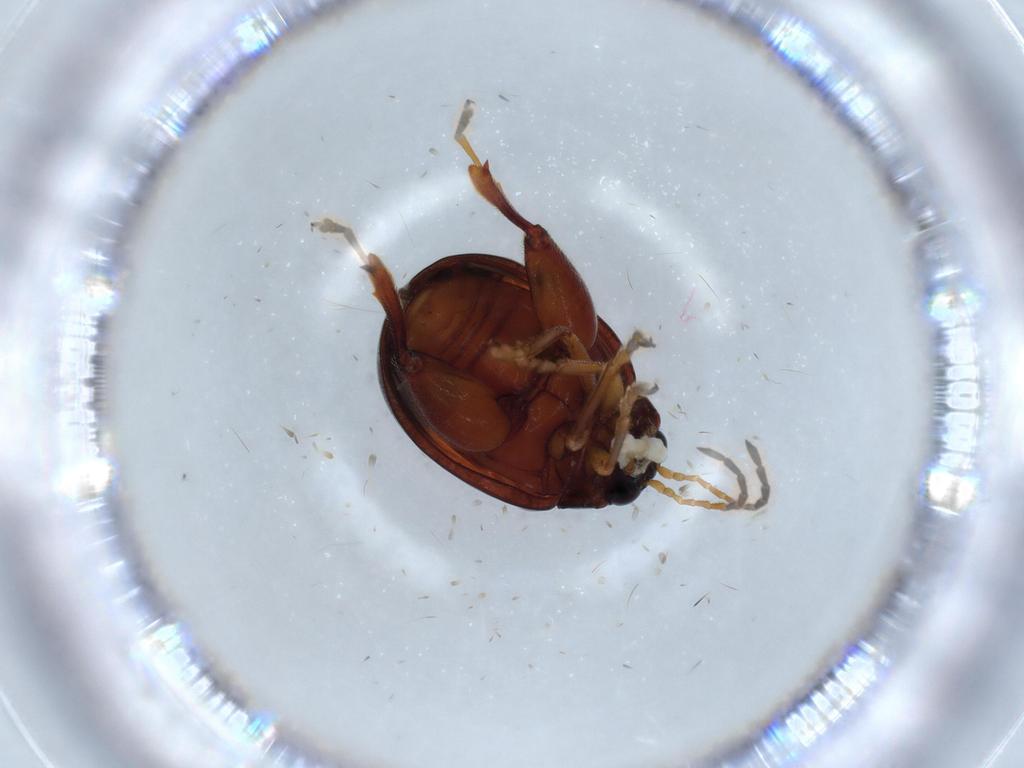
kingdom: Animalia
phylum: Arthropoda
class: Insecta
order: Coleoptera
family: Chrysomelidae
